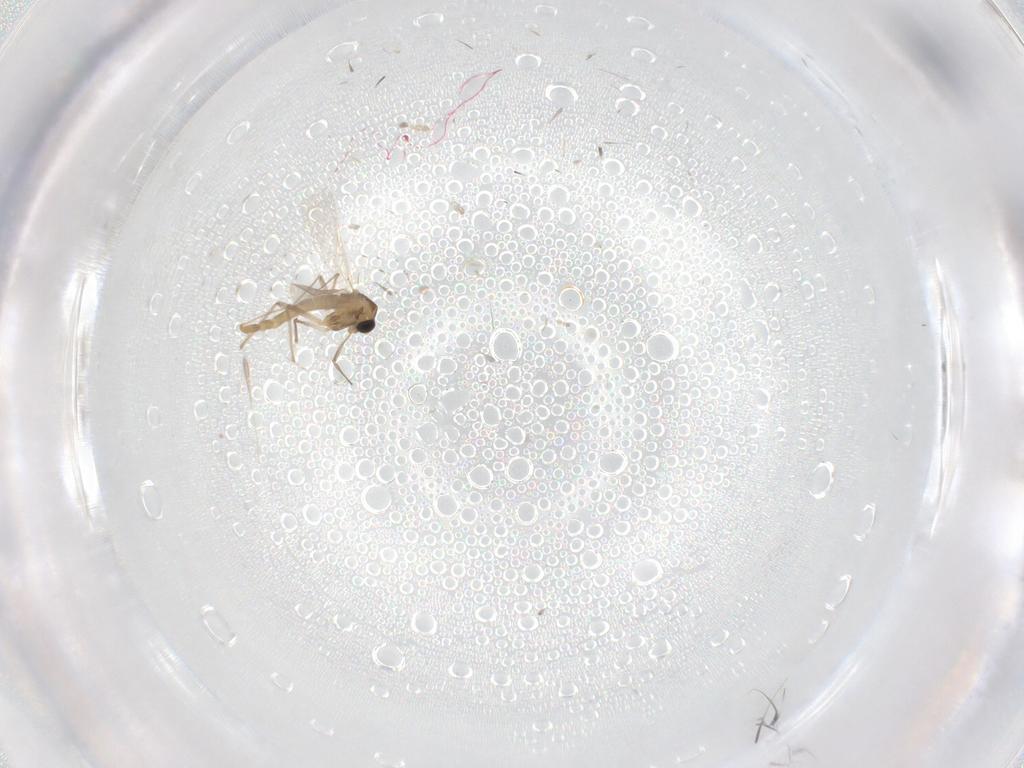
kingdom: Animalia
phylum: Arthropoda
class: Insecta
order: Diptera
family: Chironomidae
